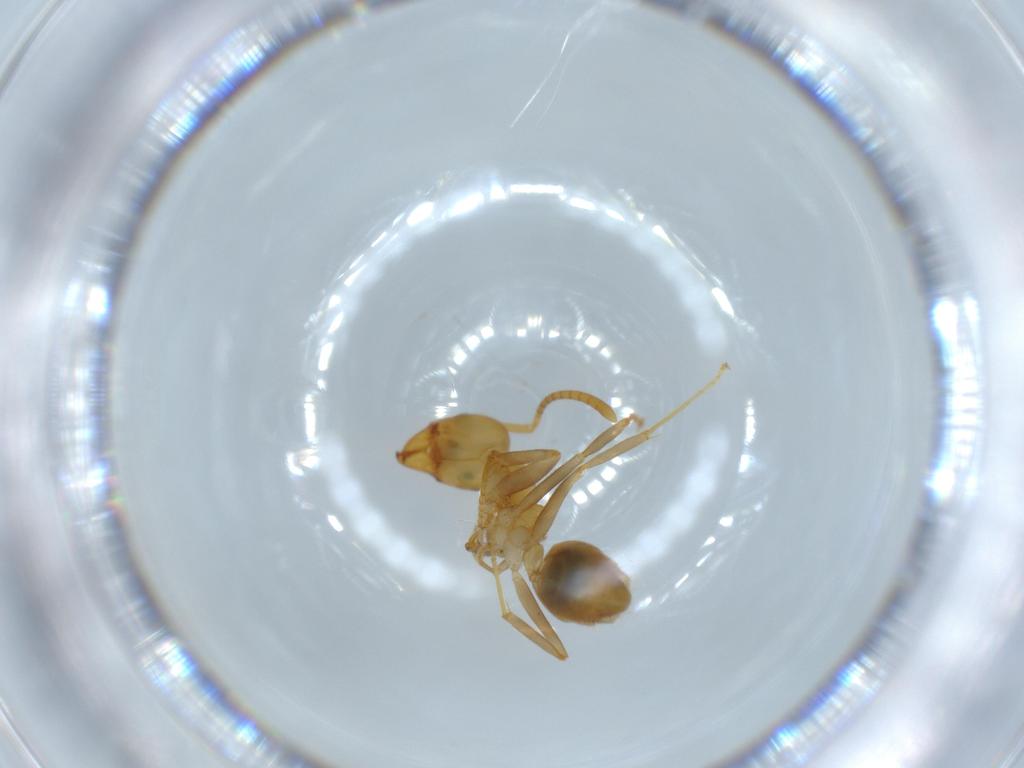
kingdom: Animalia
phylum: Arthropoda
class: Insecta
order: Hymenoptera
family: Formicidae
